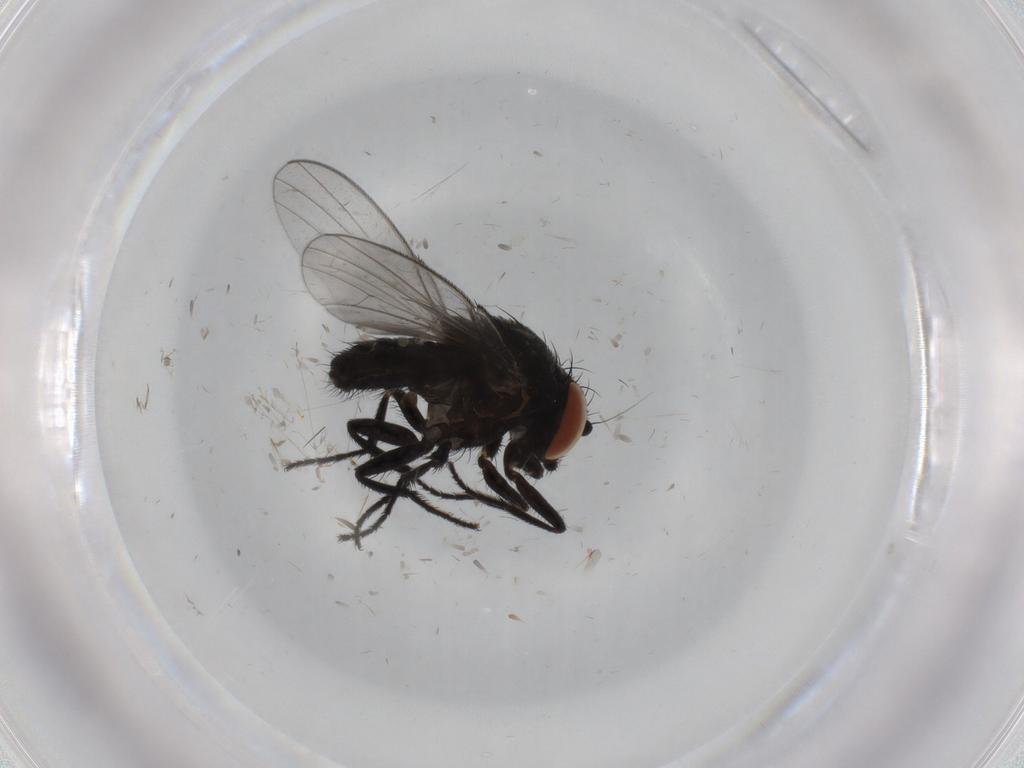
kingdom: Animalia
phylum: Arthropoda
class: Insecta
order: Diptera
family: Milichiidae
